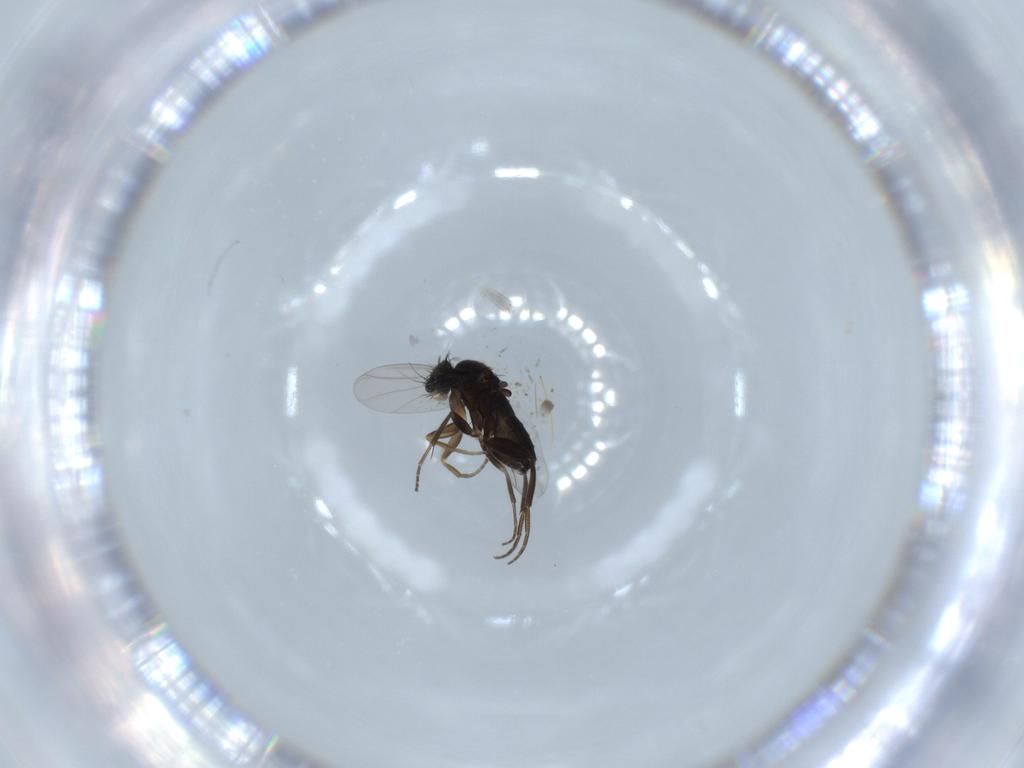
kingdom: Animalia
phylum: Arthropoda
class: Insecta
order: Diptera
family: Phoridae
